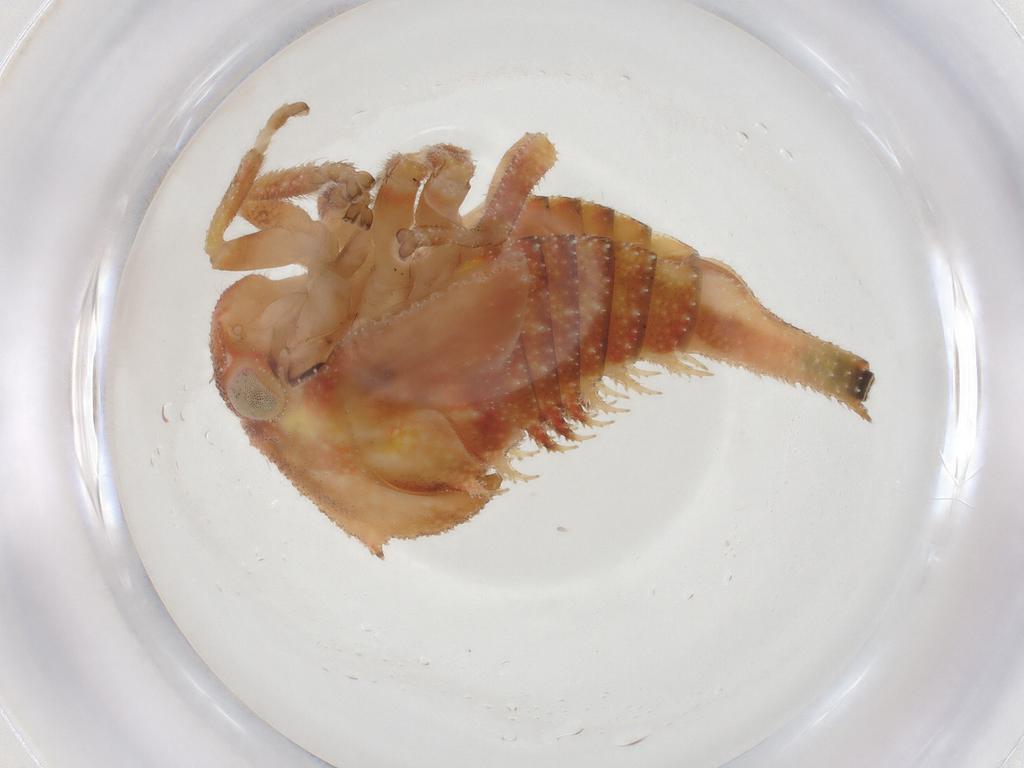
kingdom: Animalia
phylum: Arthropoda
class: Insecta
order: Hemiptera
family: Membracidae
